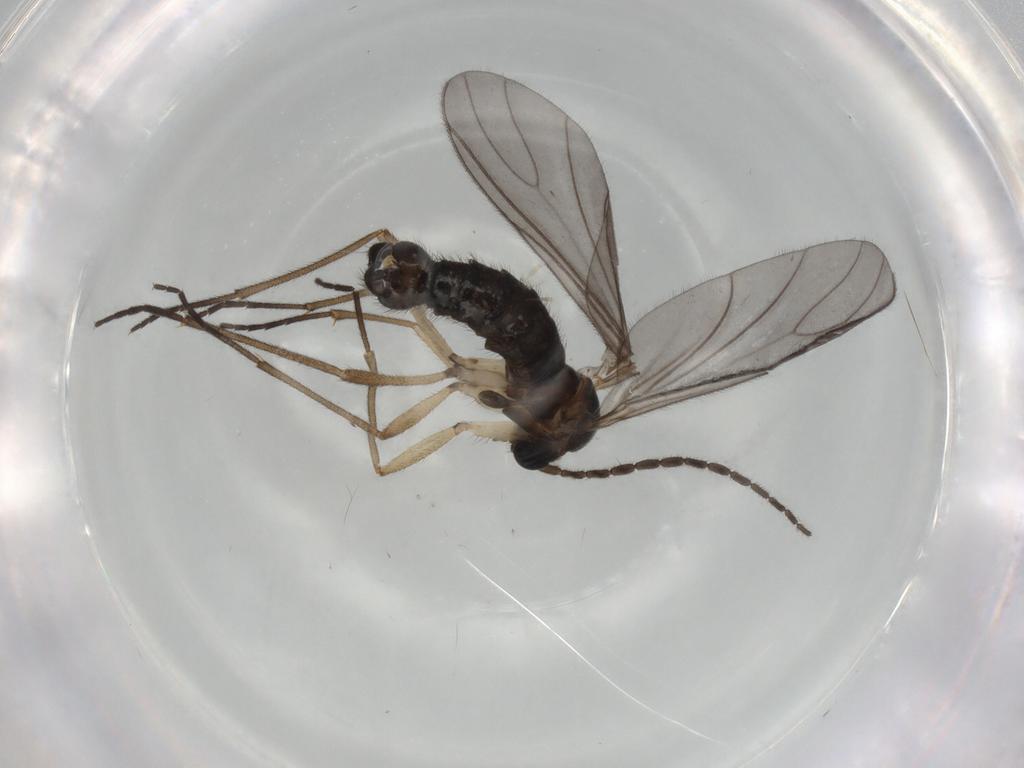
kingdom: Animalia
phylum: Arthropoda
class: Insecta
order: Diptera
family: Sciaridae
